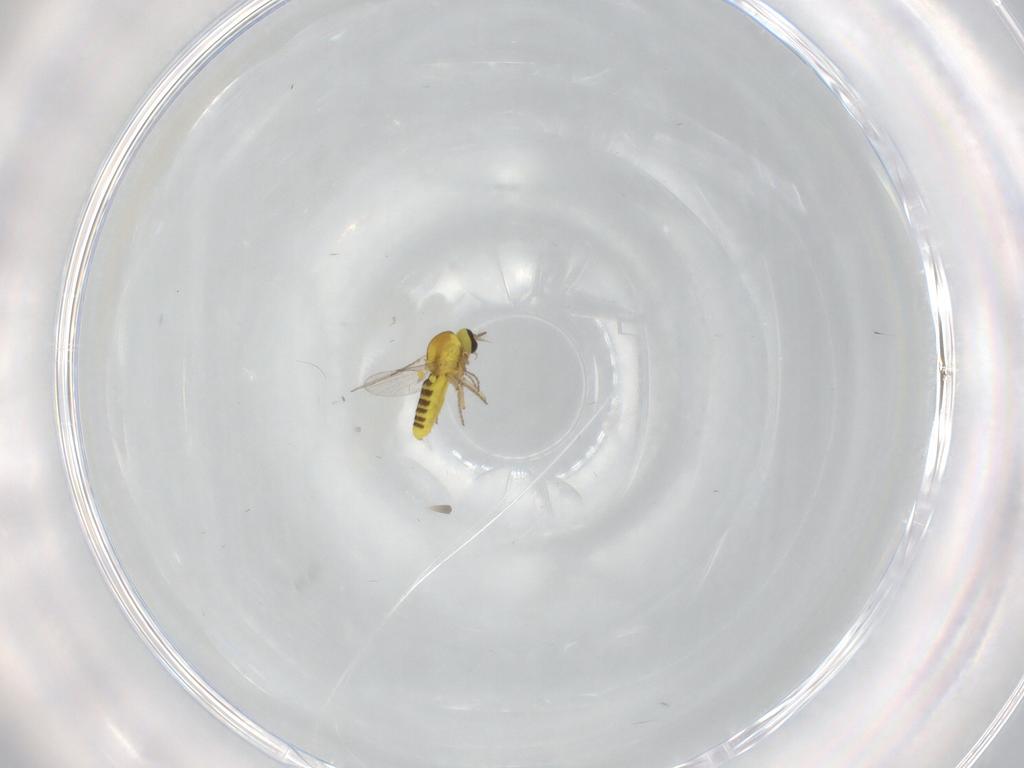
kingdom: Animalia
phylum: Arthropoda
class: Insecta
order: Diptera
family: Ceratopogonidae
